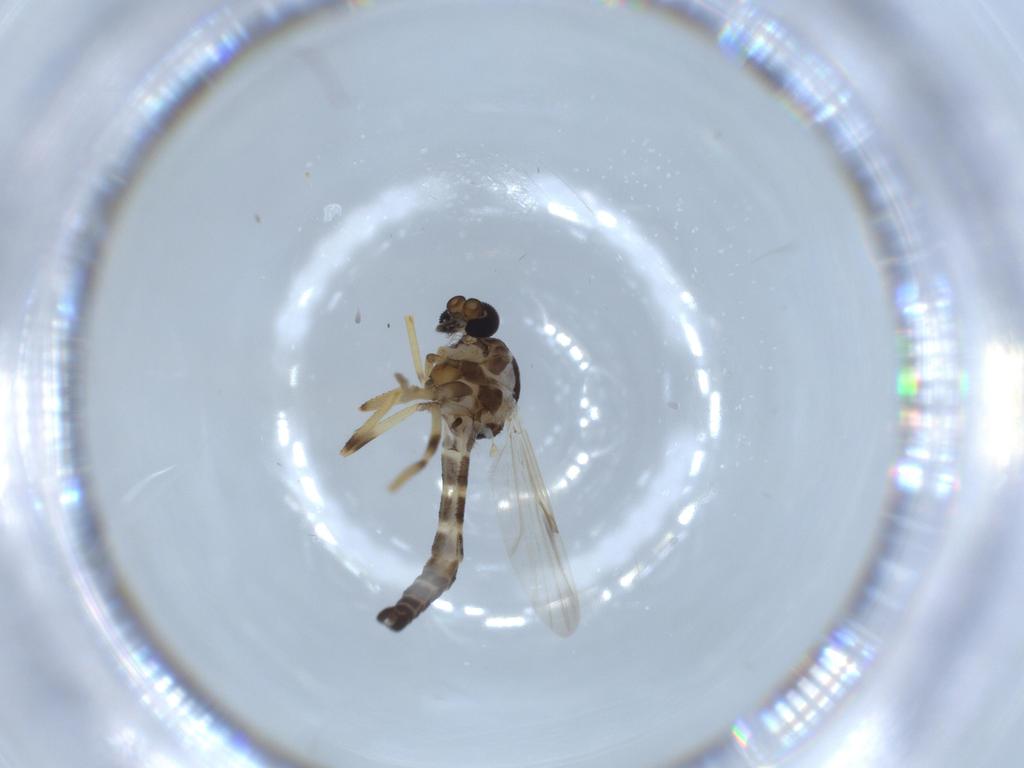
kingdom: Animalia
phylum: Arthropoda
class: Insecta
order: Diptera
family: Ceratopogonidae
